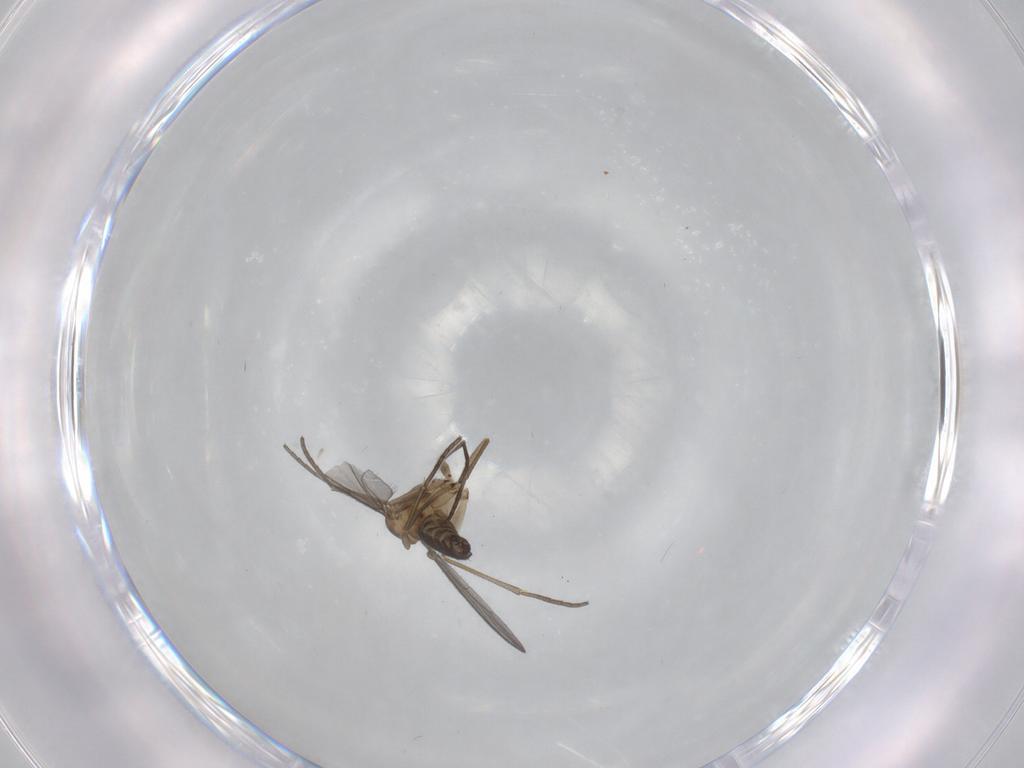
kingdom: Animalia
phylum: Arthropoda
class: Insecta
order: Diptera
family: Sciaridae
